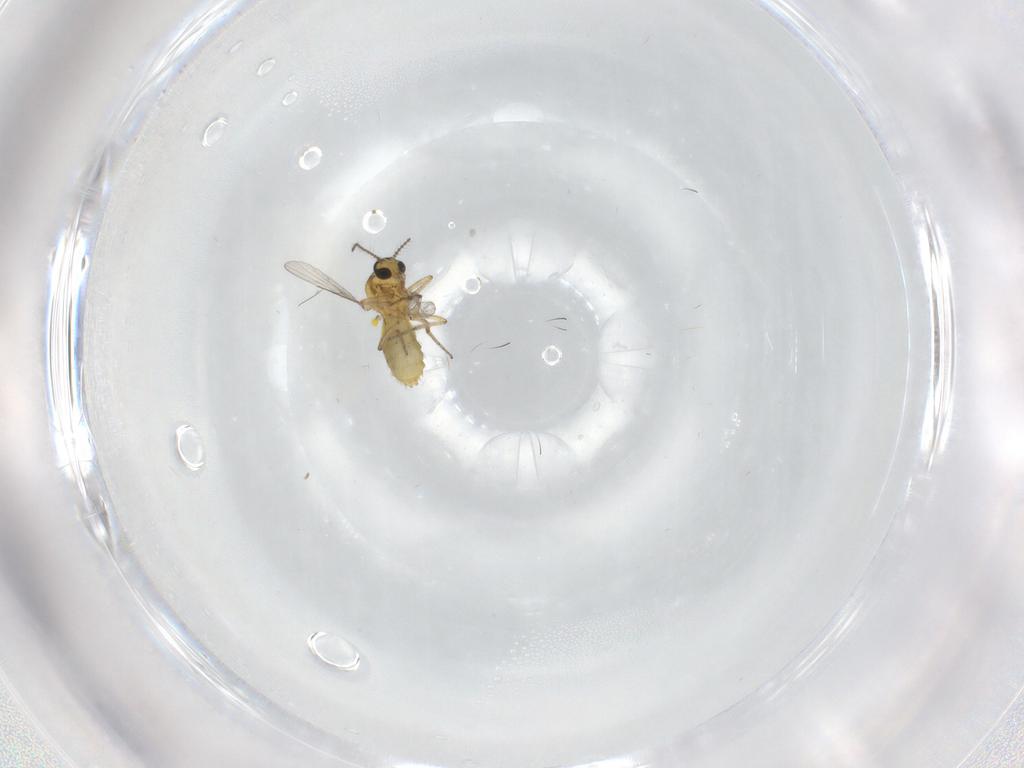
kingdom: Animalia
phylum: Arthropoda
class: Insecta
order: Diptera
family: Ceratopogonidae
